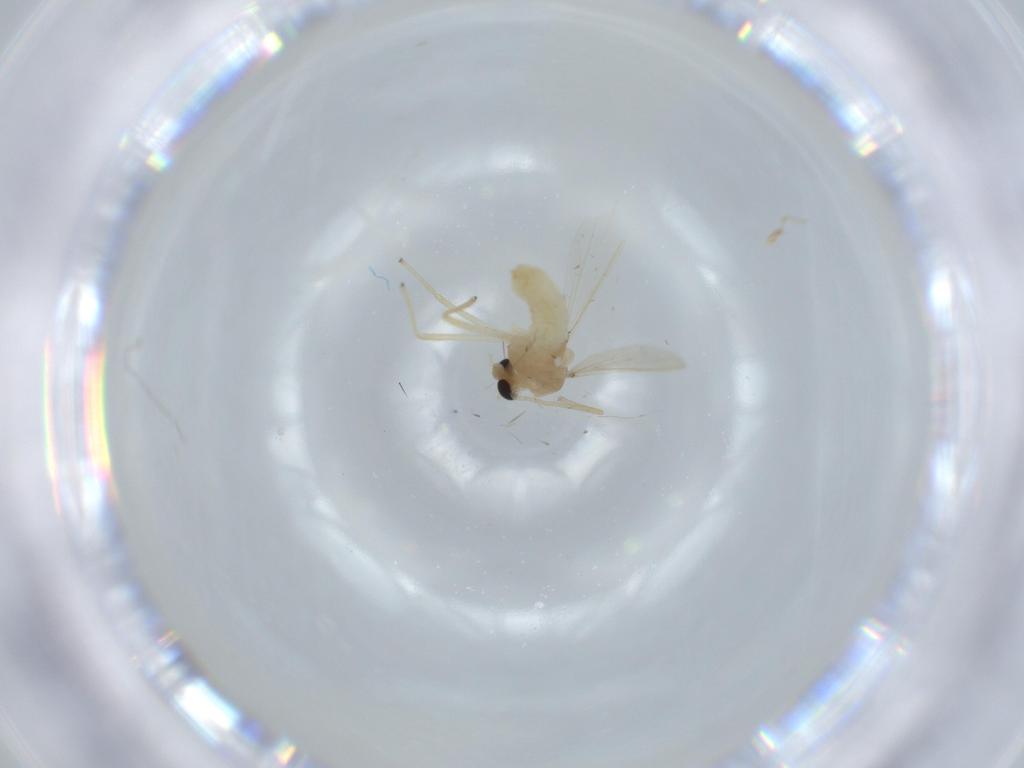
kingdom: Animalia
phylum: Arthropoda
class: Insecta
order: Diptera
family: Chironomidae
